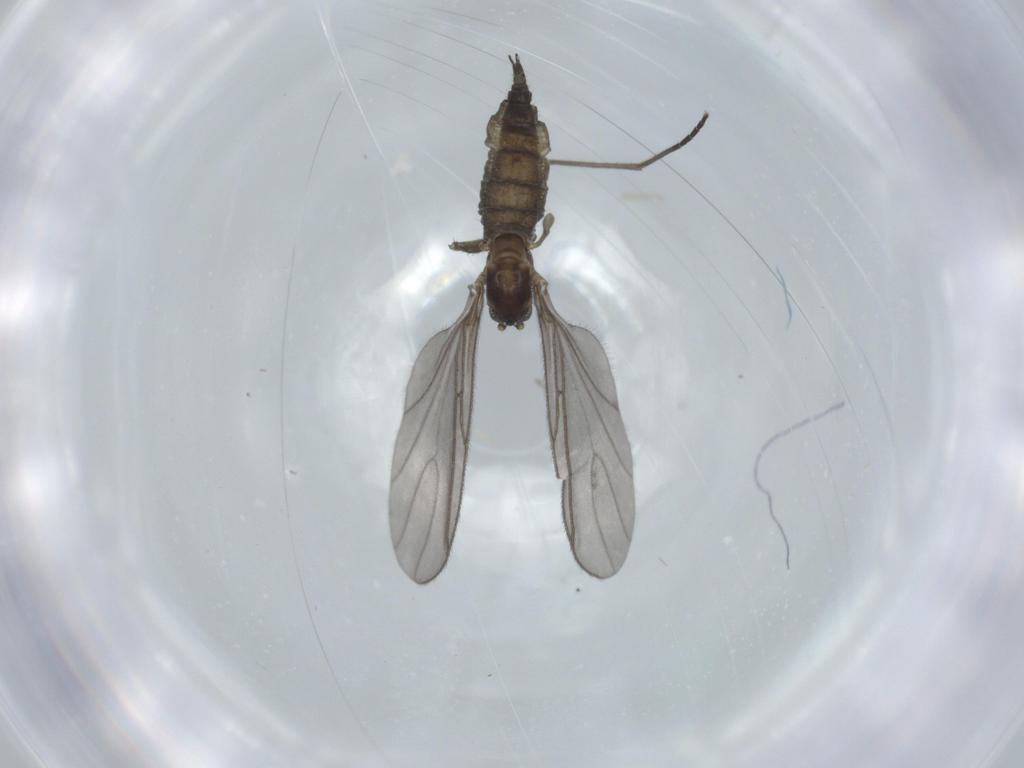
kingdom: Animalia
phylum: Arthropoda
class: Insecta
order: Diptera
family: Sciaridae
